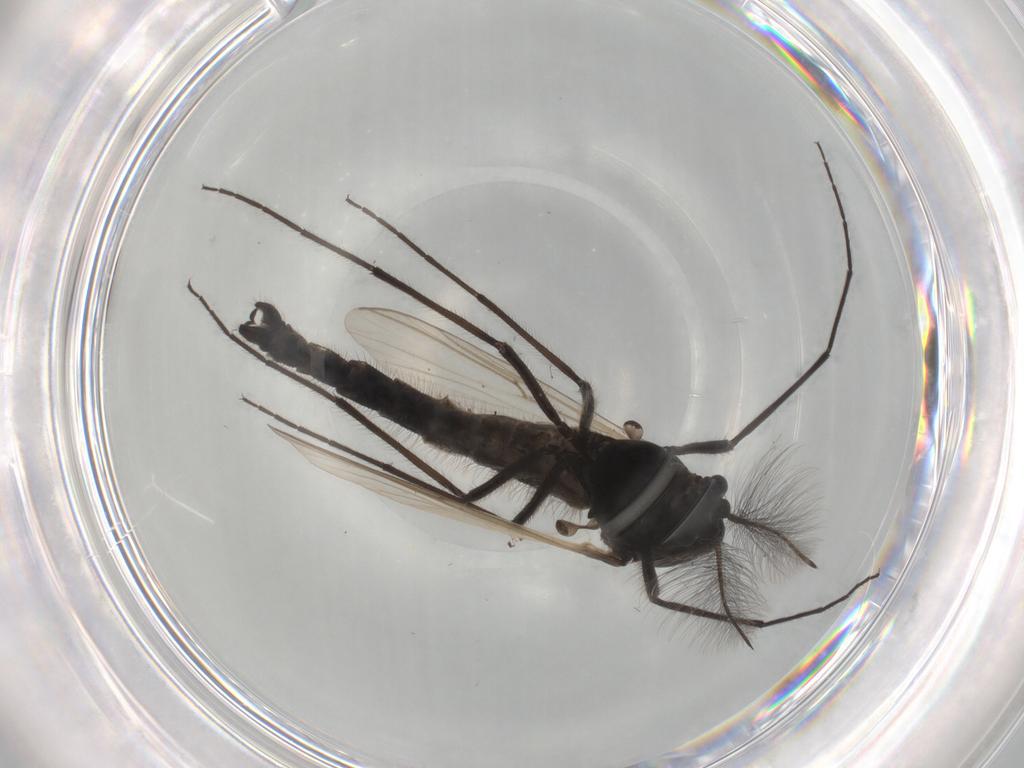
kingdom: Animalia
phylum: Arthropoda
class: Insecta
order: Diptera
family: Chironomidae
